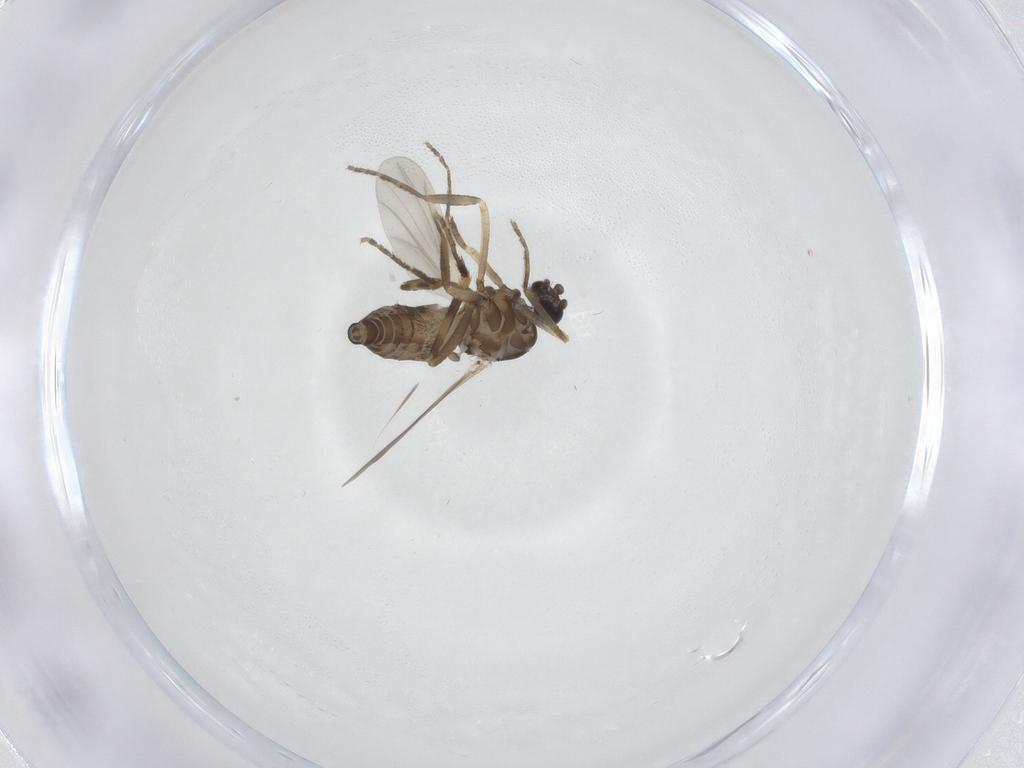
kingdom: Animalia
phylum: Arthropoda
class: Insecta
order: Diptera
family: Ceratopogonidae
